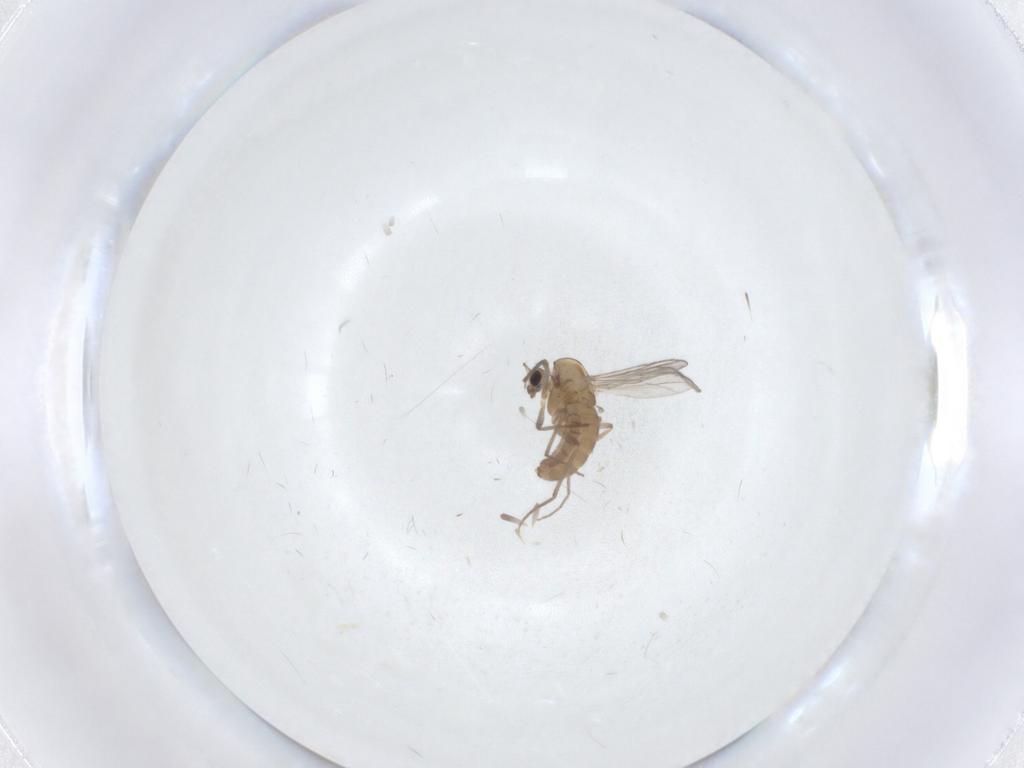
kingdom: Animalia
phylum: Arthropoda
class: Insecta
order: Diptera
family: Chironomidae
